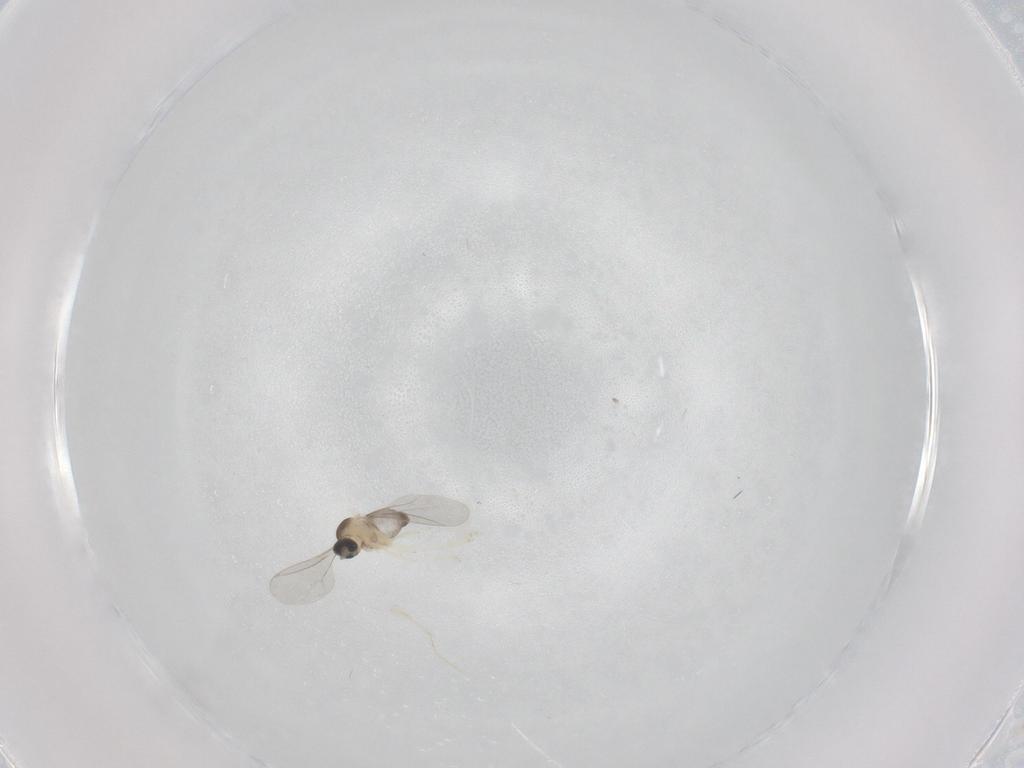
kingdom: Animalia
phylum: Arthropoda
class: Insecta
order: Diptera
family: Cecidomyiidae
